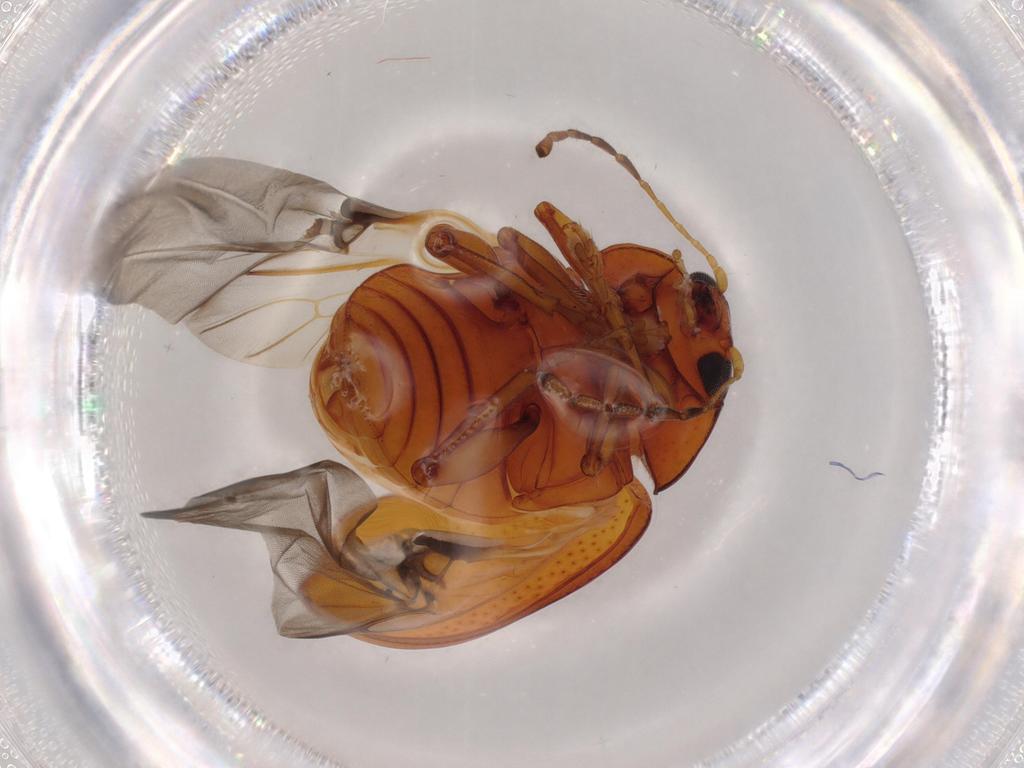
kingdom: Animalia
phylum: Arthropoda
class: Insecta
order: Coleoptera
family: Chrysomelidae
